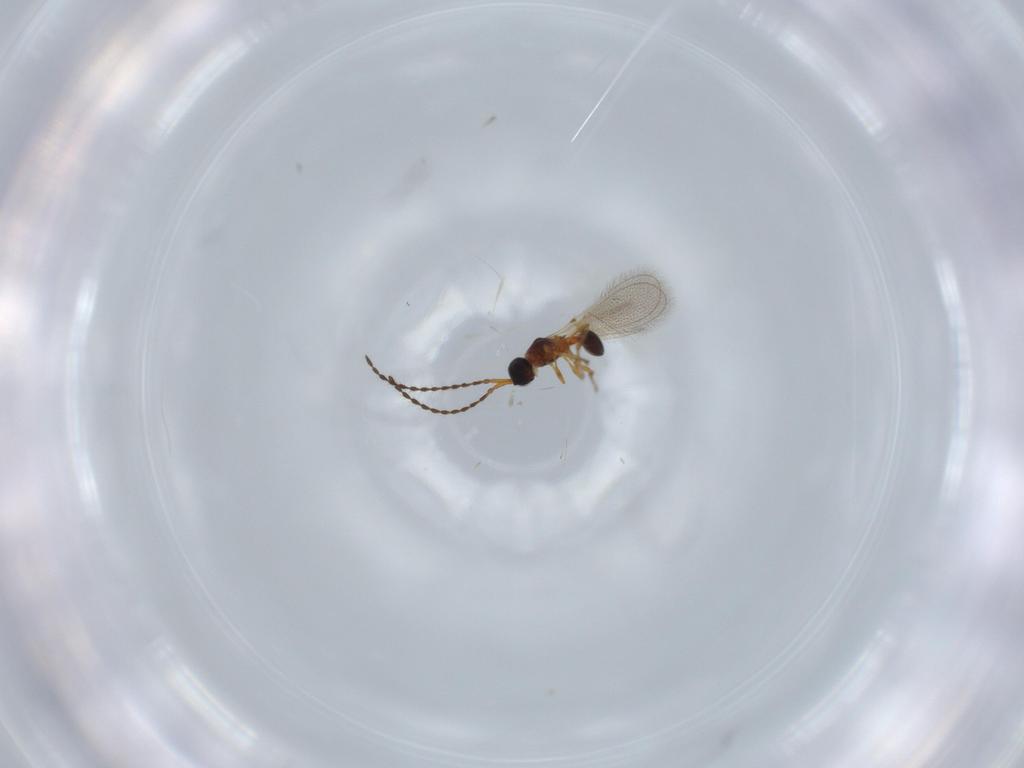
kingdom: Animalia
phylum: Arthropoda
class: Insecta
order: Hymenoptera
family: Diapriidae
